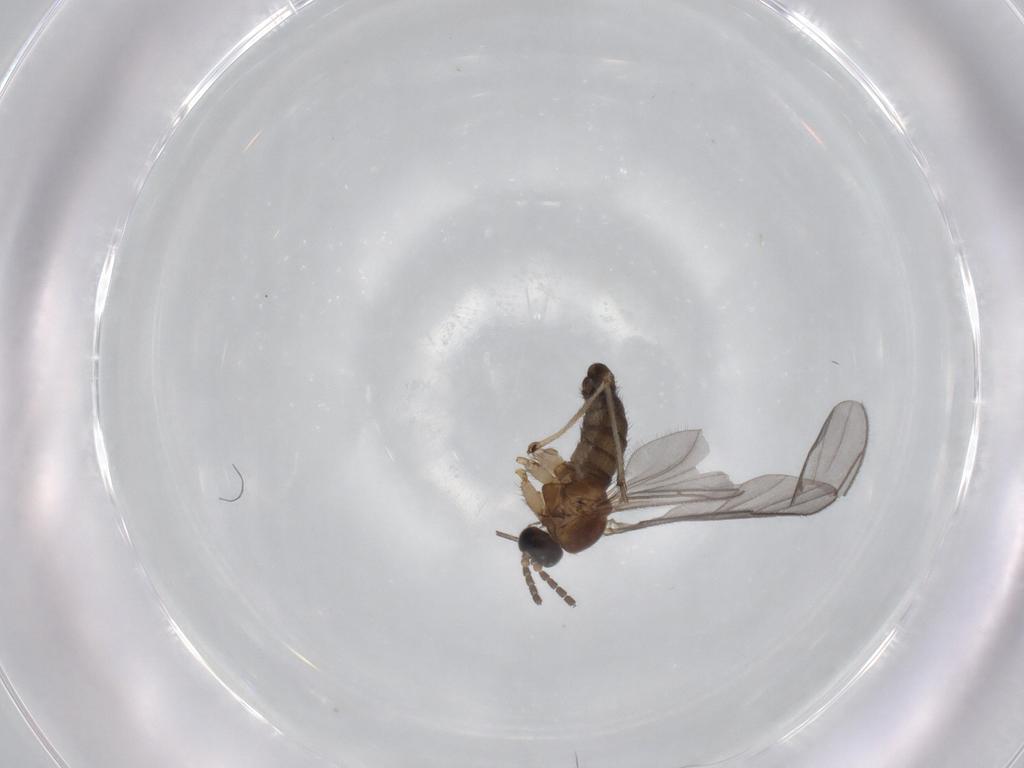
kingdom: Animalia
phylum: Arthropoda
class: Insecta
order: Diptera
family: Sciaridae
